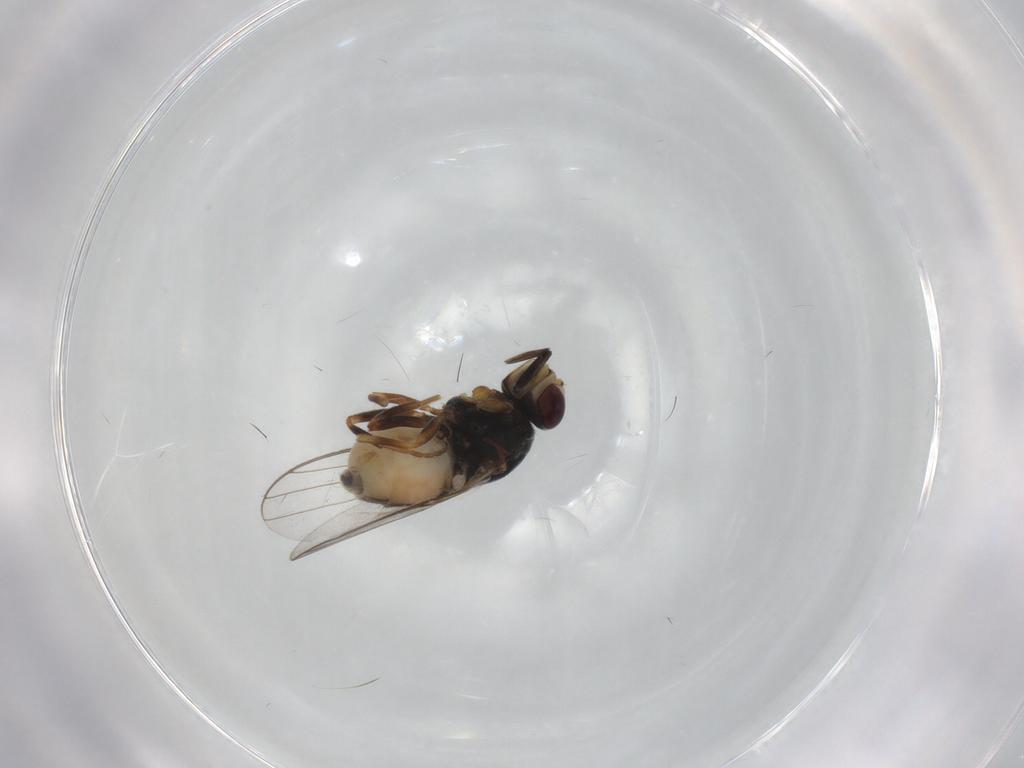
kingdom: Animalia
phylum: Arthropoda
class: Insecta
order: Diptera
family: Chloropidae
